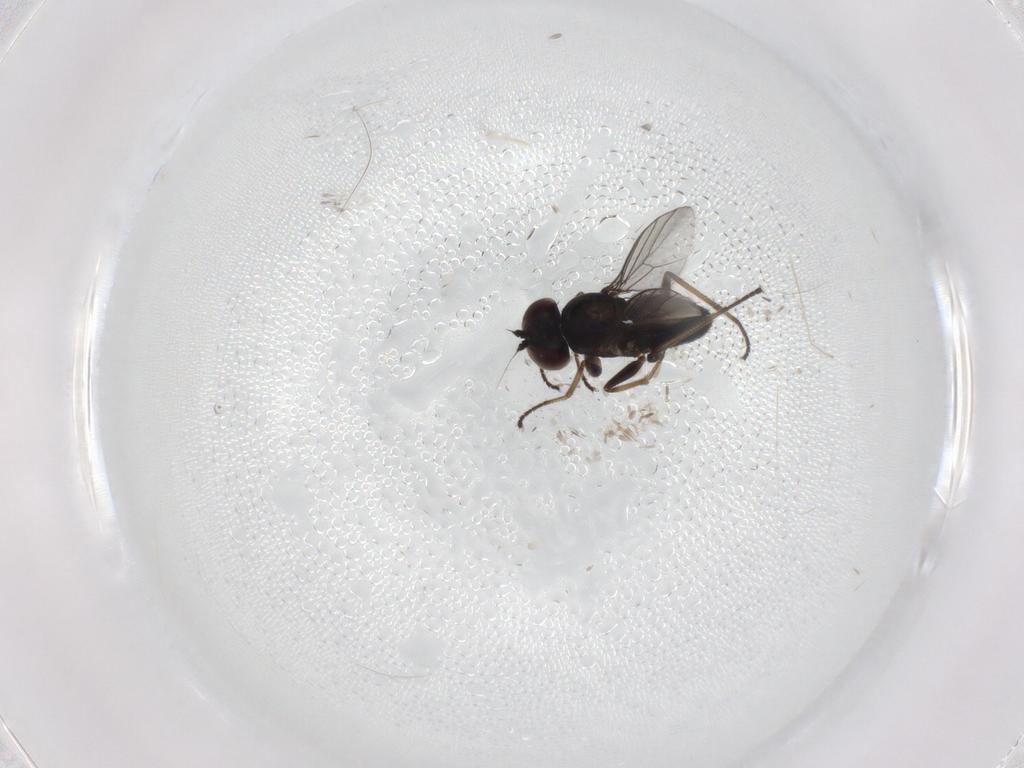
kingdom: Animalia
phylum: Arthropoda
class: Insecta
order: Diptera
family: Dolichopodidae
